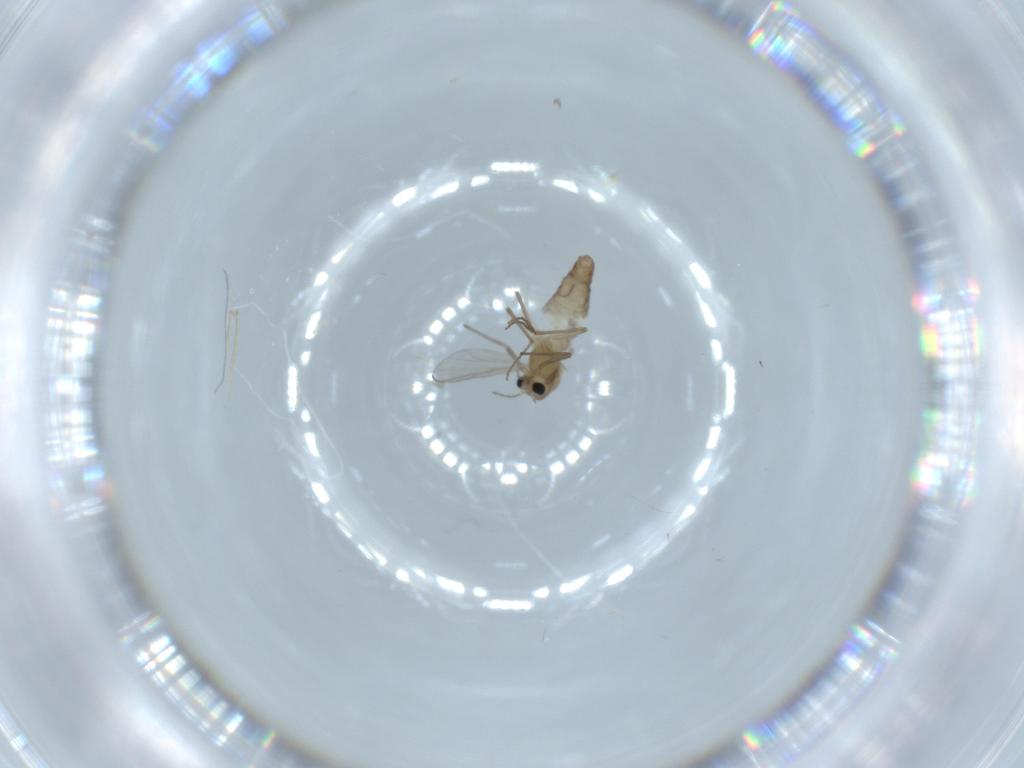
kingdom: Animalia
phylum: Arthropoda
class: Insecta
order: Diptera
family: Chironomidae
